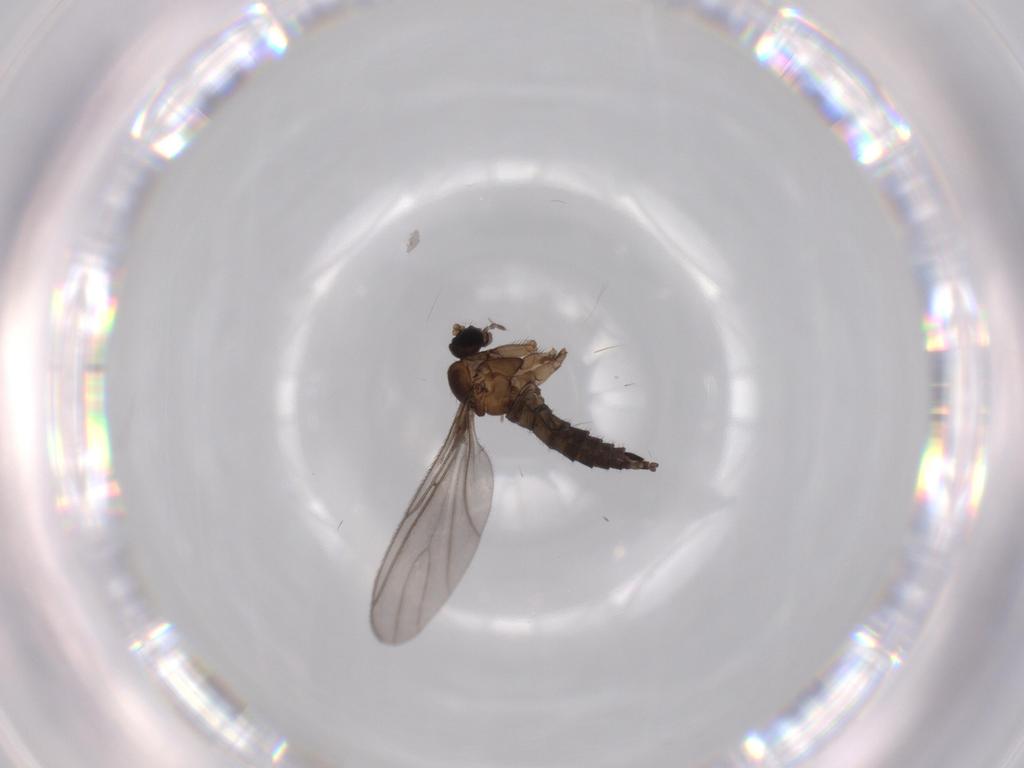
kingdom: Animalia
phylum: Arthropoda
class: Insecta
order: Diptera
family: Sciaridae
